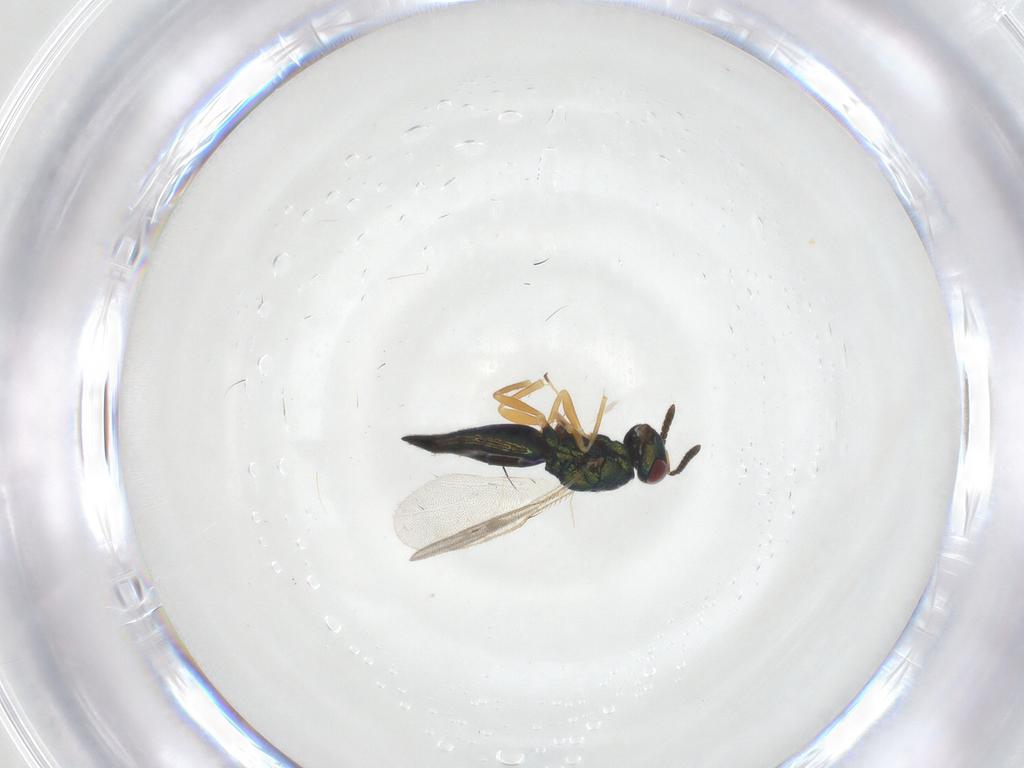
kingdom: Animalia
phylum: Arthropoda
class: Insecta
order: Hymenoptera
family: Pteromalidae
